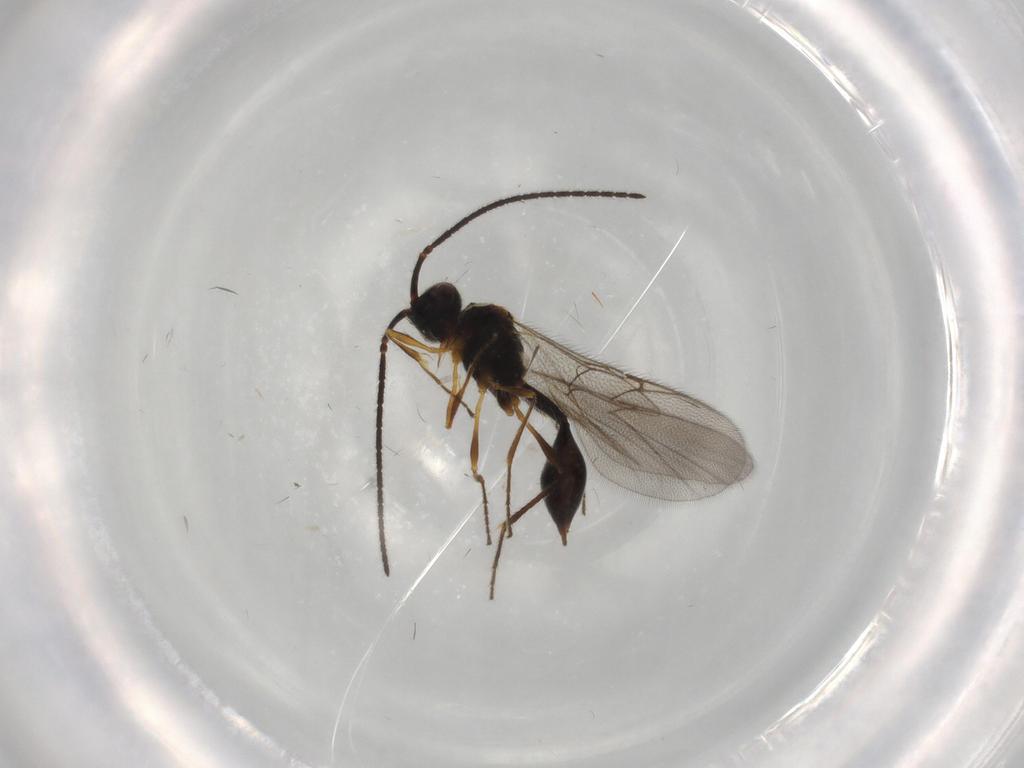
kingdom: Animalia
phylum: Arthropoda
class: Insecta
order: Hymenoptera
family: Diapriidae
